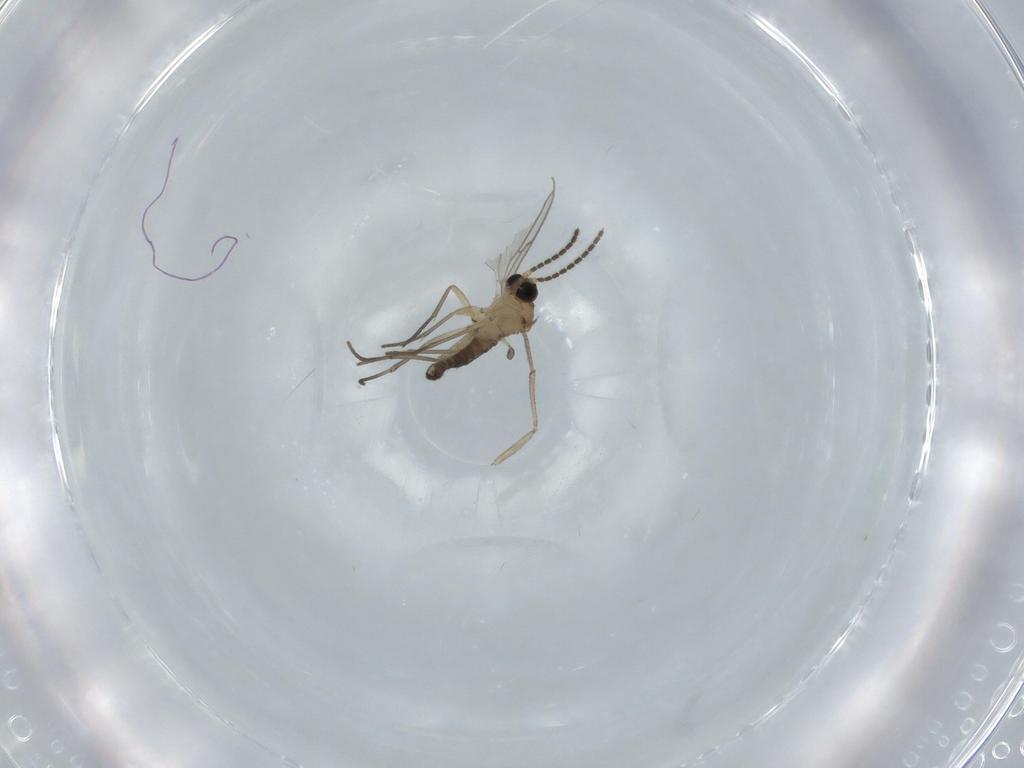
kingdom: Animalia
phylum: Arthropoda
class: Insecta
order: Diptera
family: Sciaridae
